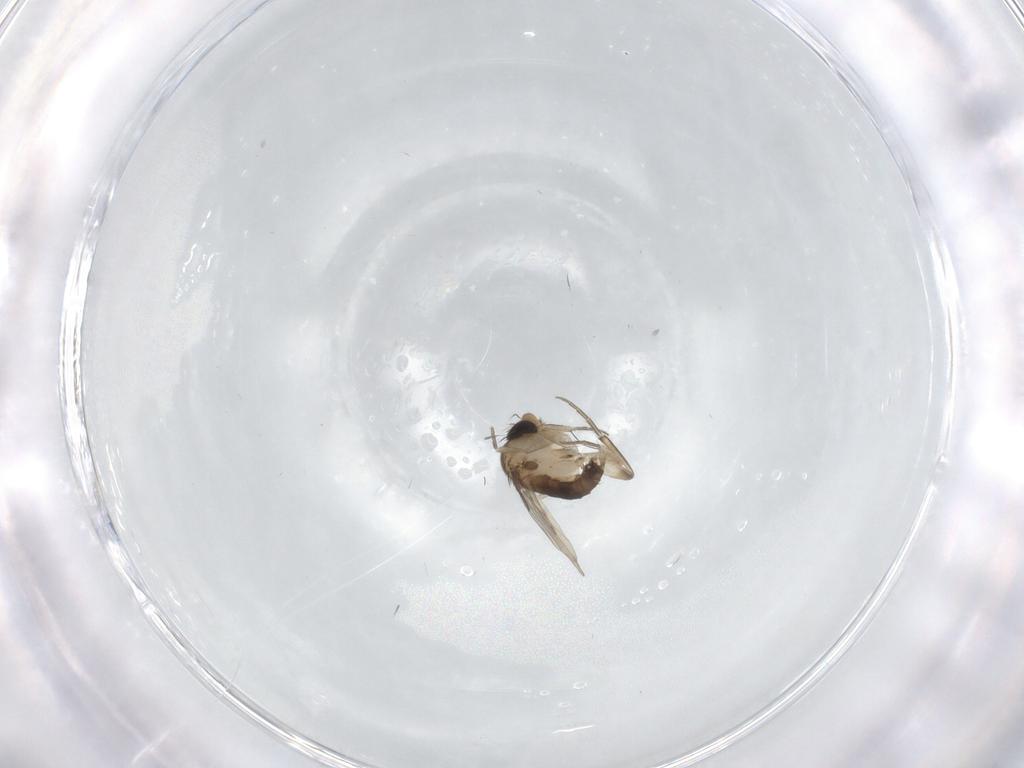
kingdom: Animalia
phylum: Arthropoda
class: Insecta
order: Diptera
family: Phoridae
